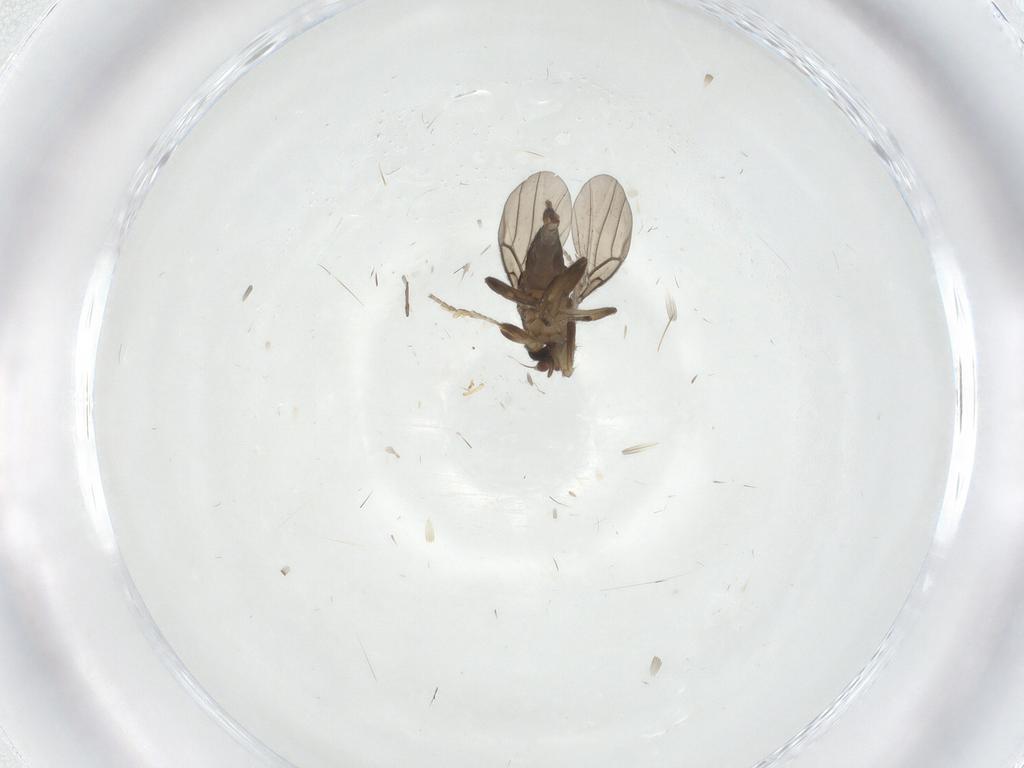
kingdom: Animalia
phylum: Arthropoda
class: Insecta
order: Diptera
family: Limoniidae
